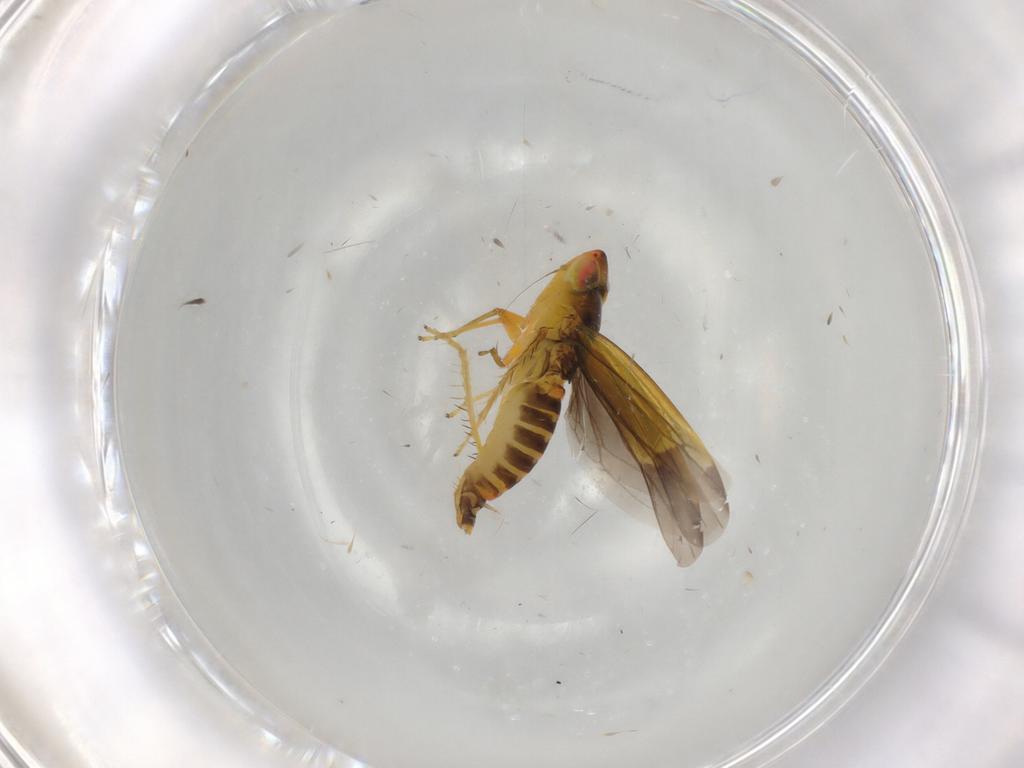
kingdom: Animalia
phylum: Arthropoda
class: Insecta
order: Hemiptera
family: Cicadellidae
